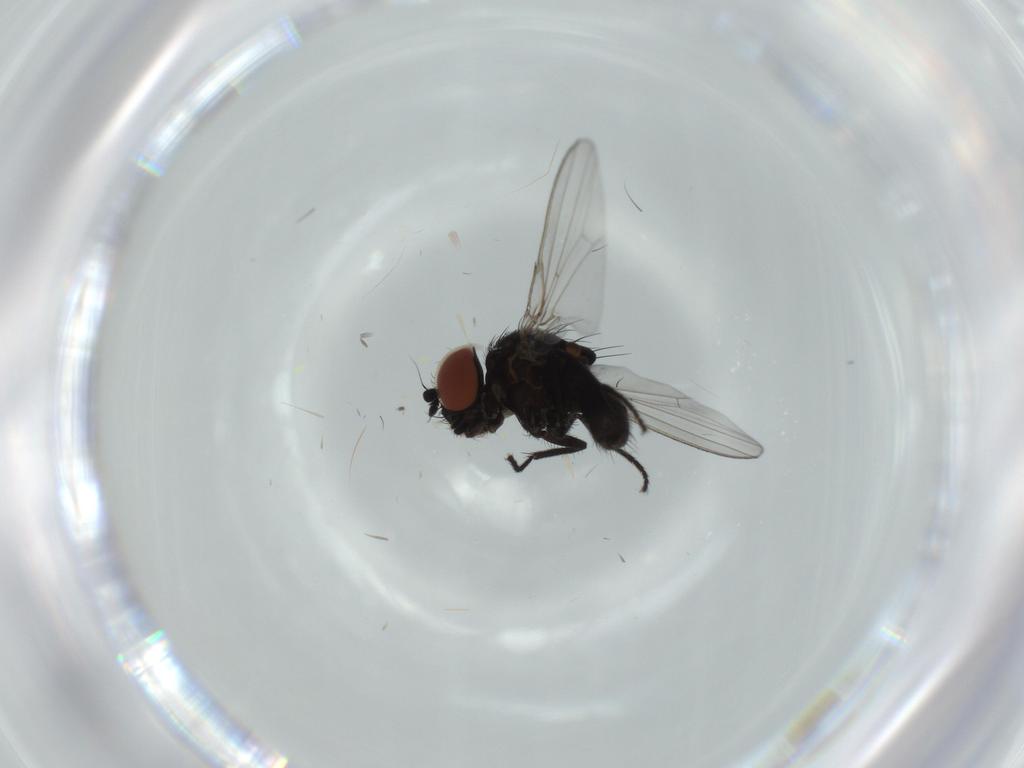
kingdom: Animalia
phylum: Arthropoda
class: Insecta
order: Diptera
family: Milichiidae
